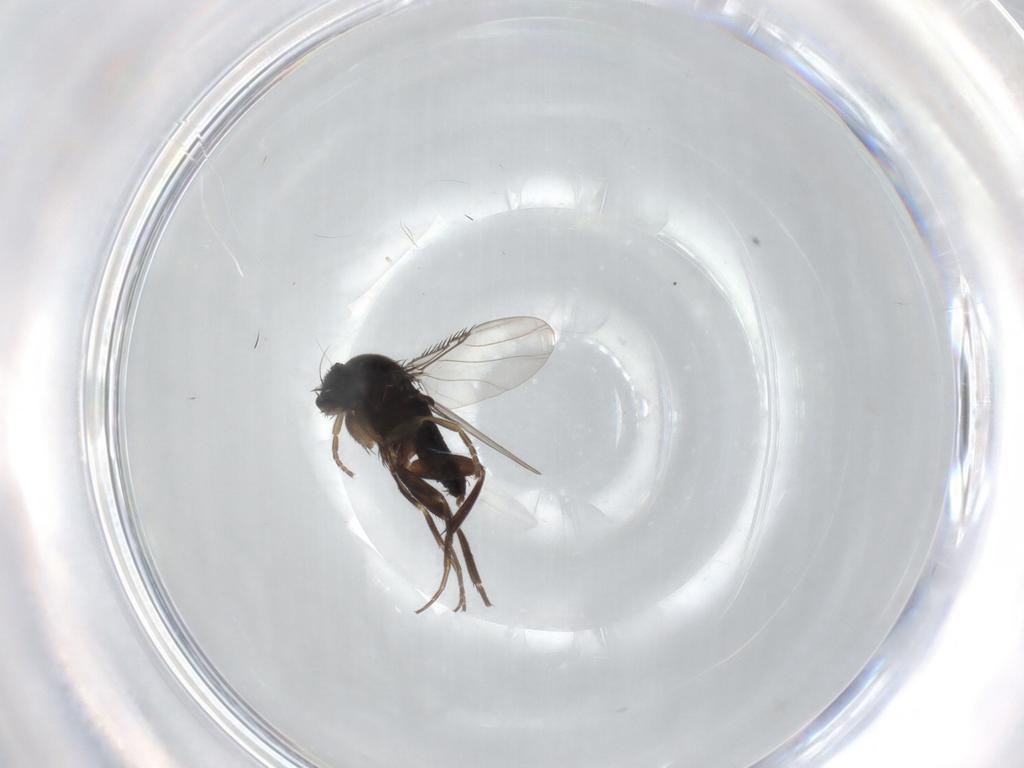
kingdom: Animalia
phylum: Arthropoda
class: Insecta
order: Diptera
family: Phoridae
